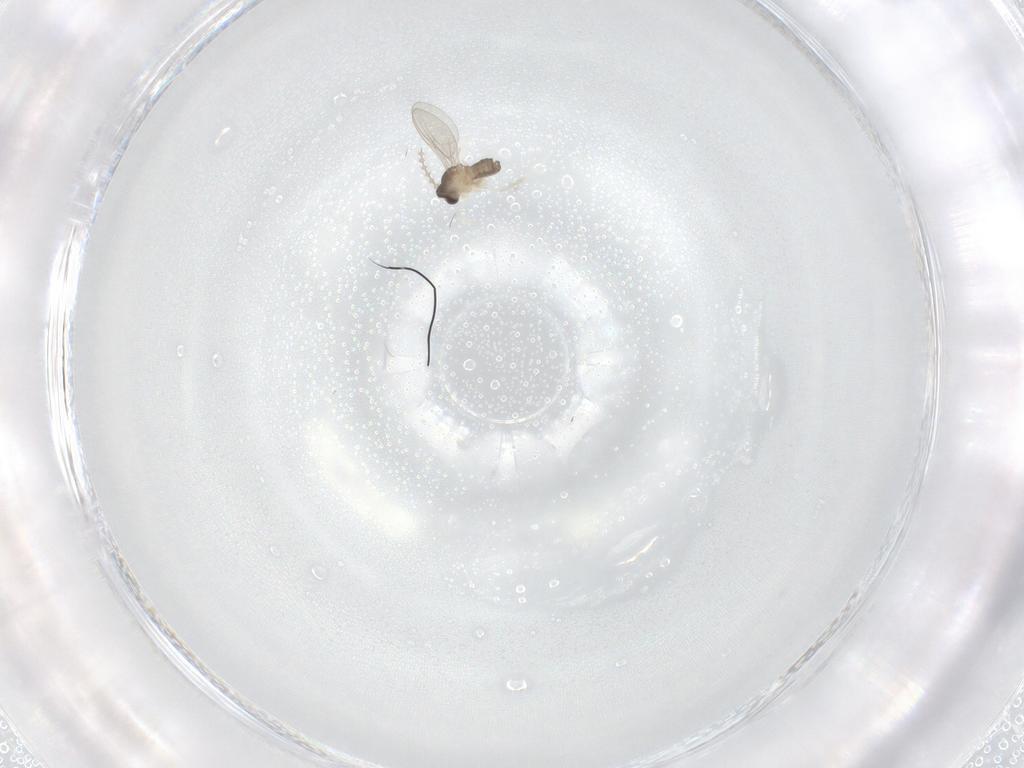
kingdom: Animalia
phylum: Arthropoda
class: Insecta
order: Diptera
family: Cecidomyiidae
